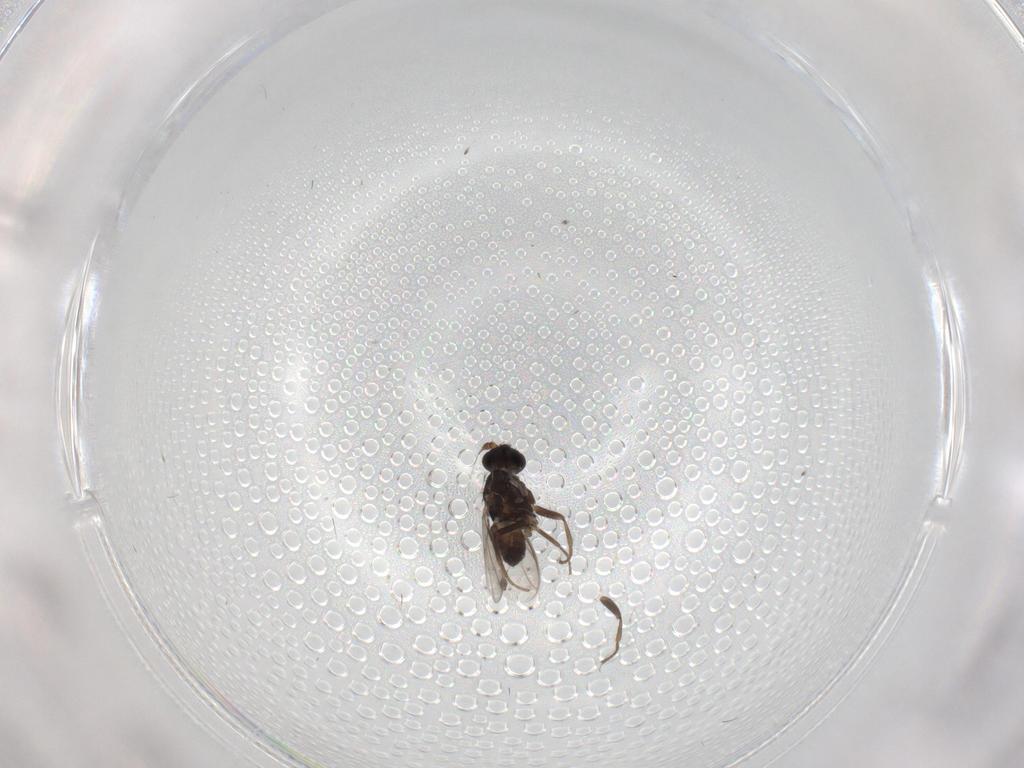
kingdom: Animalia
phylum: Arthropoda
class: Insecta
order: Diptera
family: Sphaeroceridae
